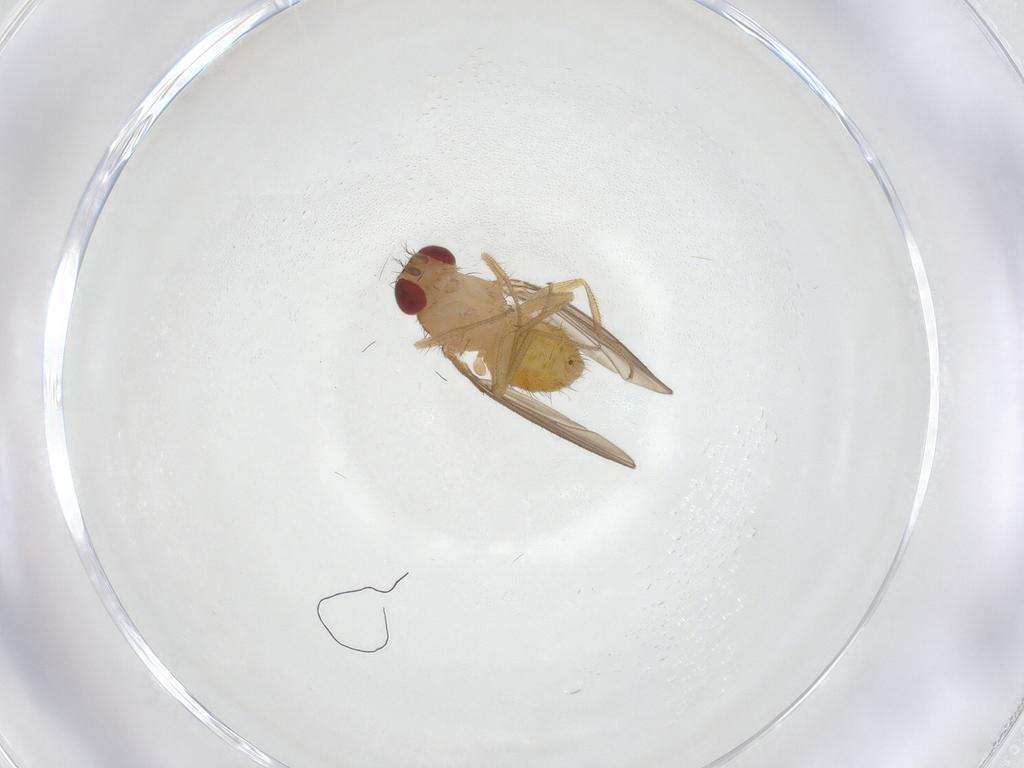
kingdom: Animalia
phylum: Arthropoda
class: Insecta
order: Diptera
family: Drosophilidae
